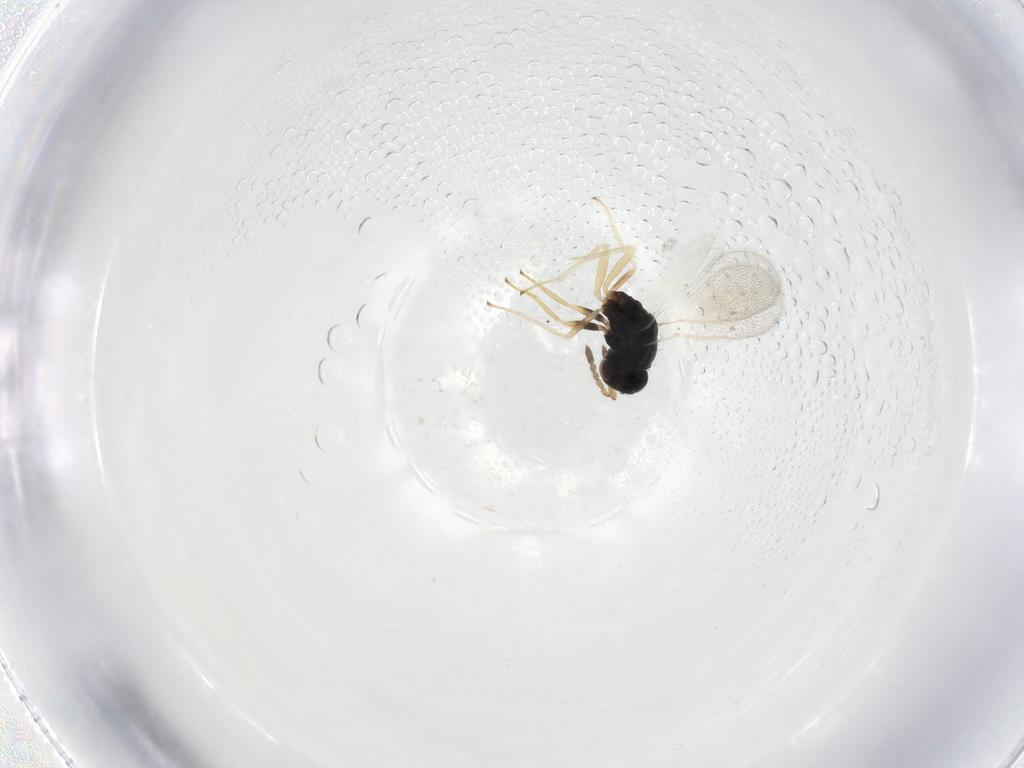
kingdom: Animalia
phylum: Arthropoda
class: Insecta
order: Hymenoptera
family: Eulophidae
